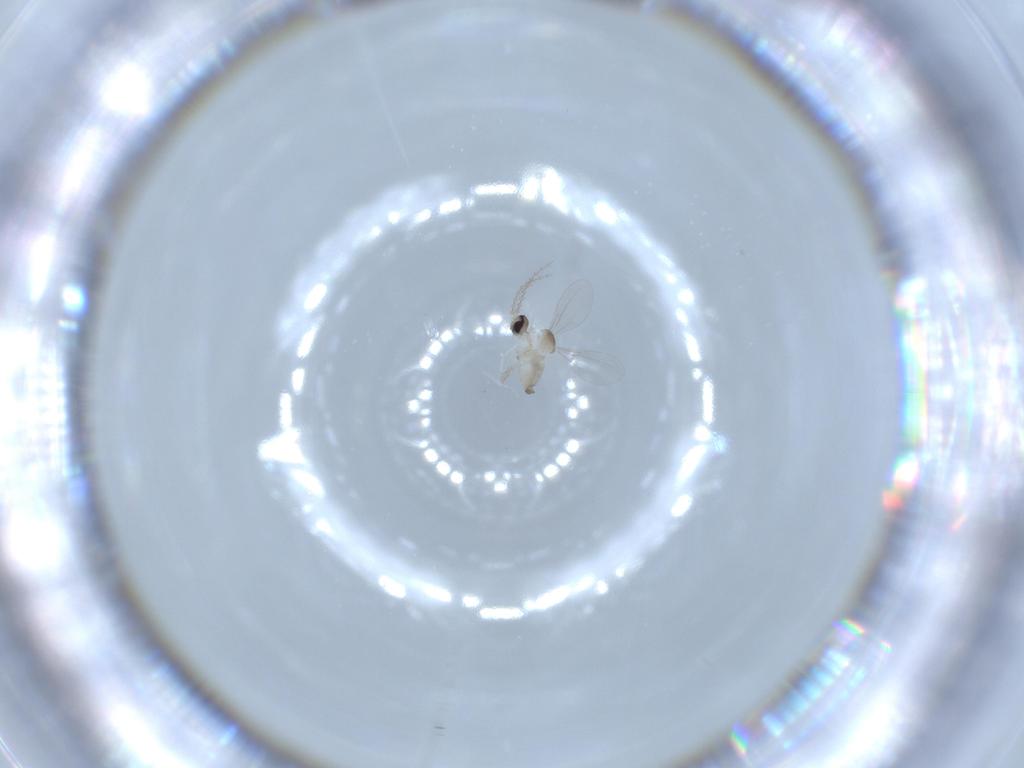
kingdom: Animalia
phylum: Arthropoda
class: Insecta
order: Diptera
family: Cecidomyiidae
